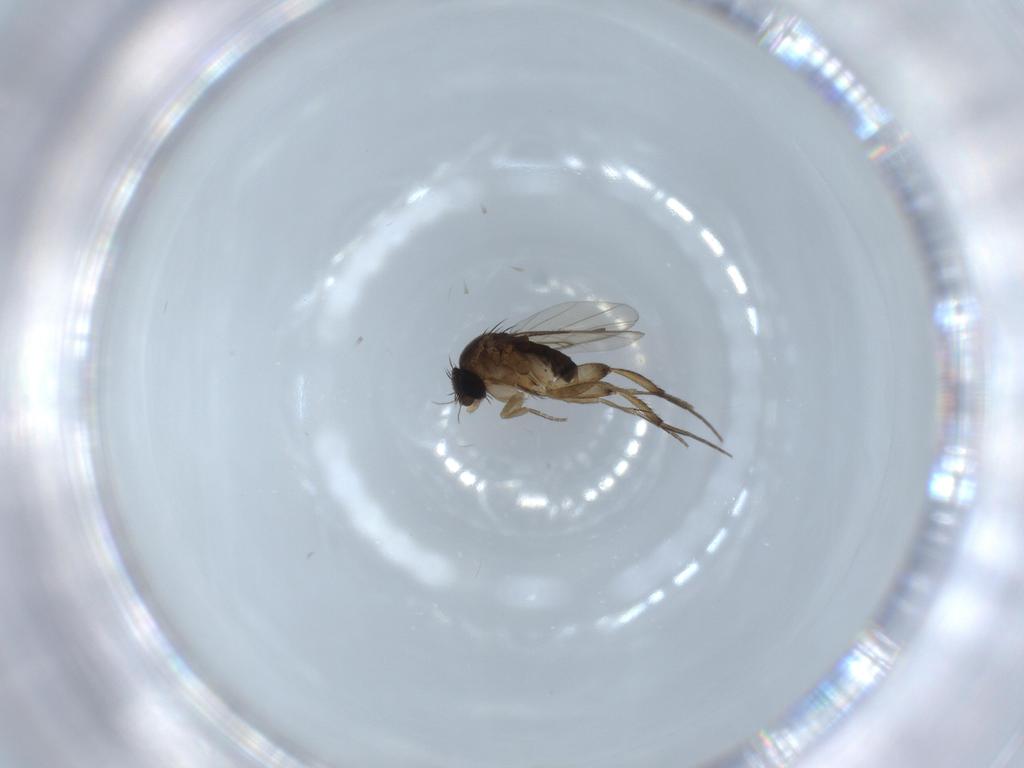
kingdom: Animalia
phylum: Arthropoda
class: Insecta
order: Diptera
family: Phoridae
